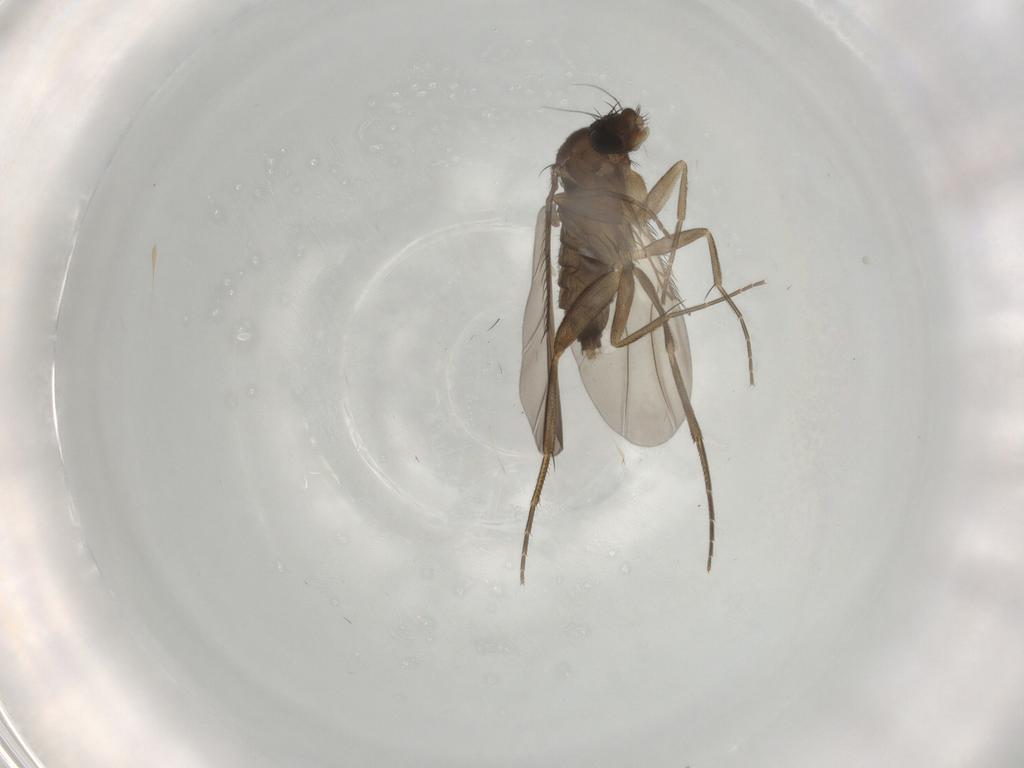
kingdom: Animalia
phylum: Arthropoda
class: Insecta
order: Diptera
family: Phoridae
